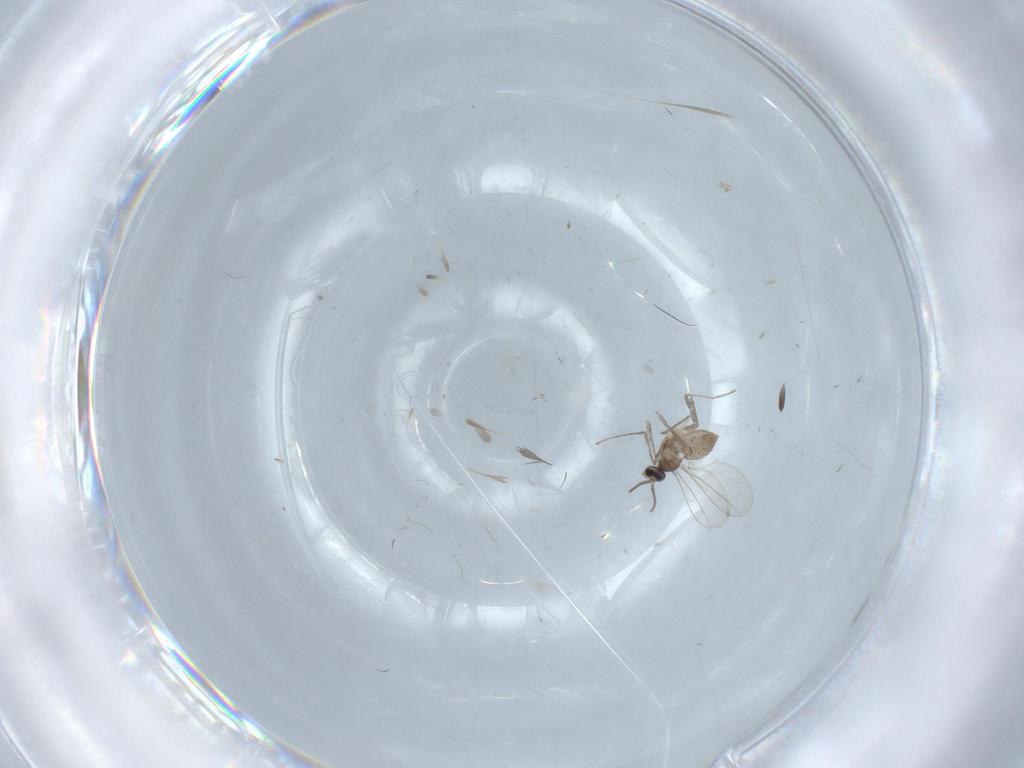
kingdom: Animalia
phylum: Arthropoda
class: Insecta
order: Diptera
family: Cecidomyiidae
